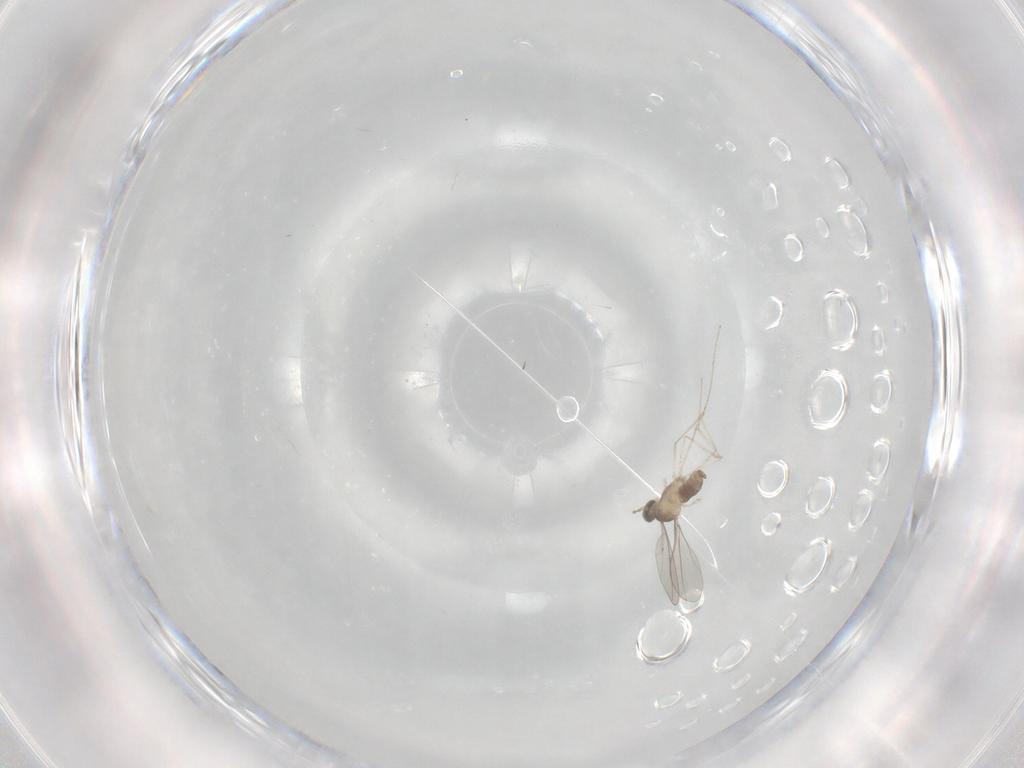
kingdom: Animalia
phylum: Arthropoda
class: Insecta
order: Diptera
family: Cecidomyiidae
